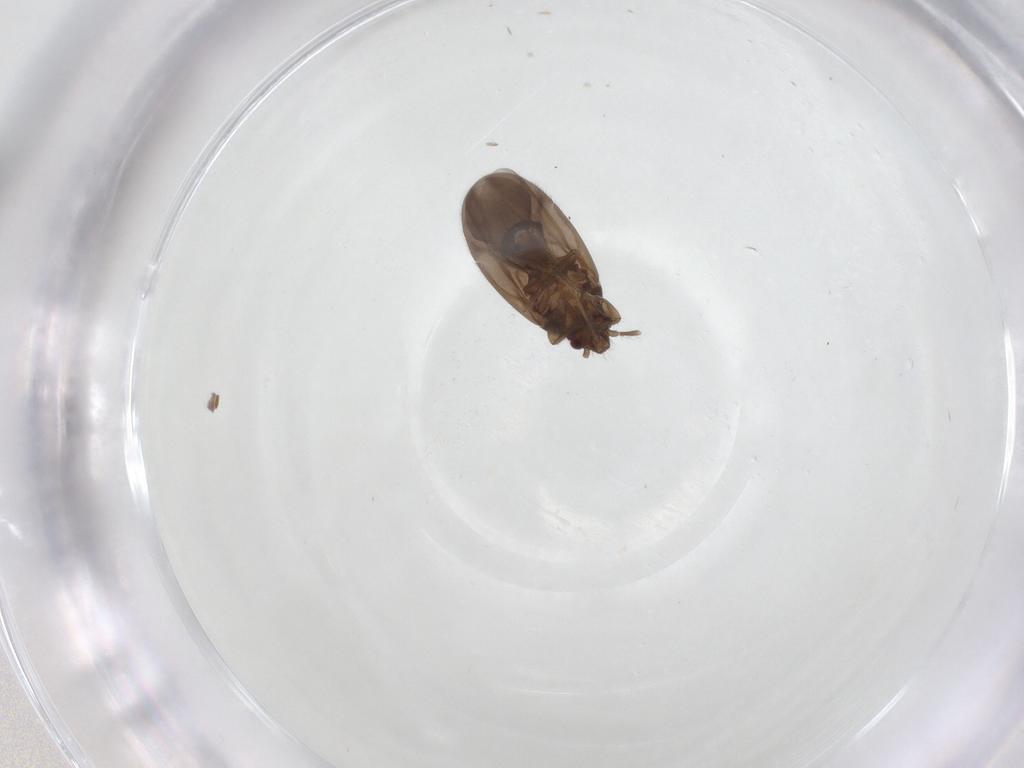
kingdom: Animalia
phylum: Arthropoda
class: Insecta
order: Hemiptera
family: Ceratocombidae
